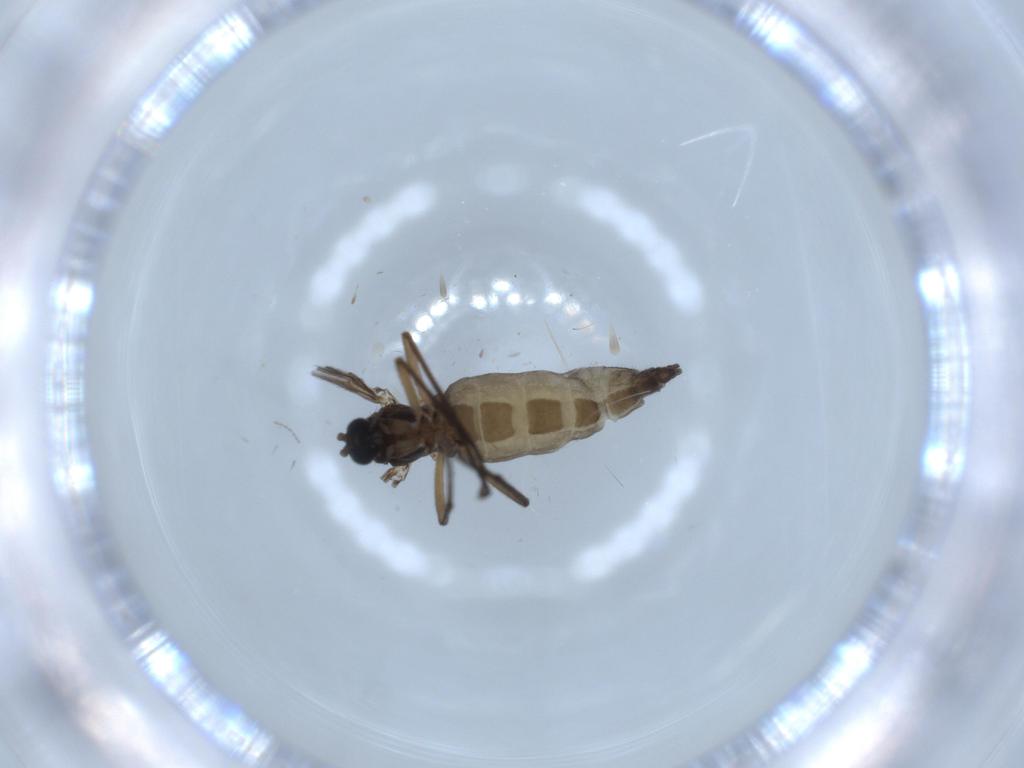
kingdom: Animalia
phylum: Arthropoda
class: Insecta
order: Diptera
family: Sciaridae
